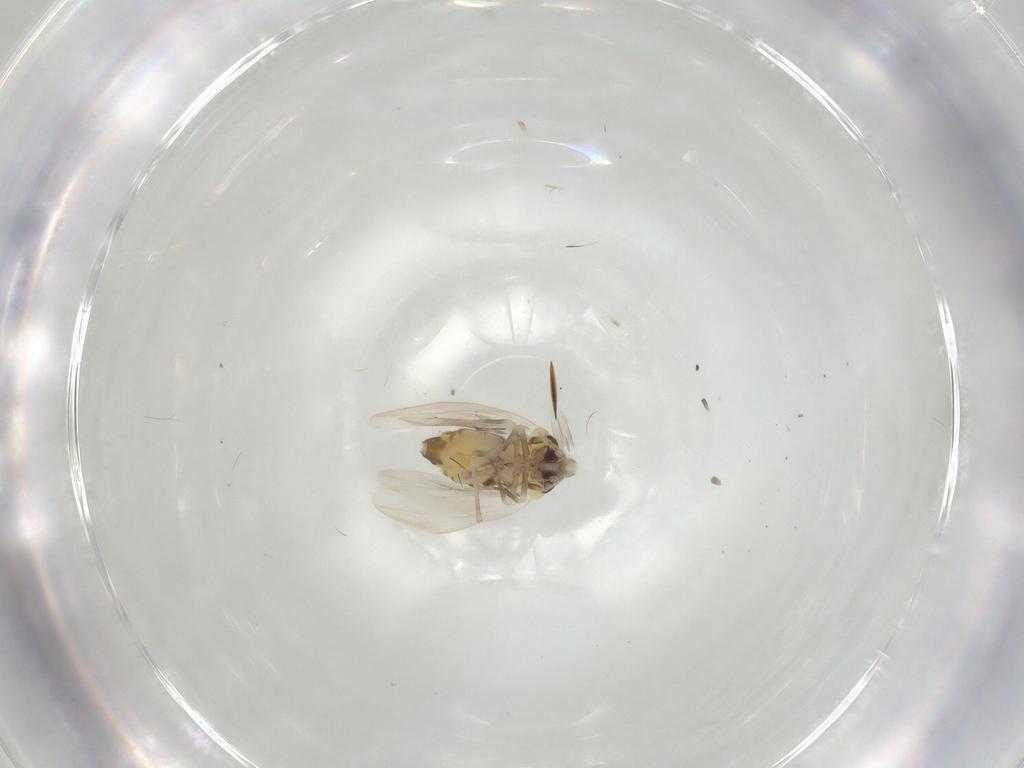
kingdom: Animalia
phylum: Arthropoda
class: Insecta
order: Hemiptera
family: Aleyrodidae
